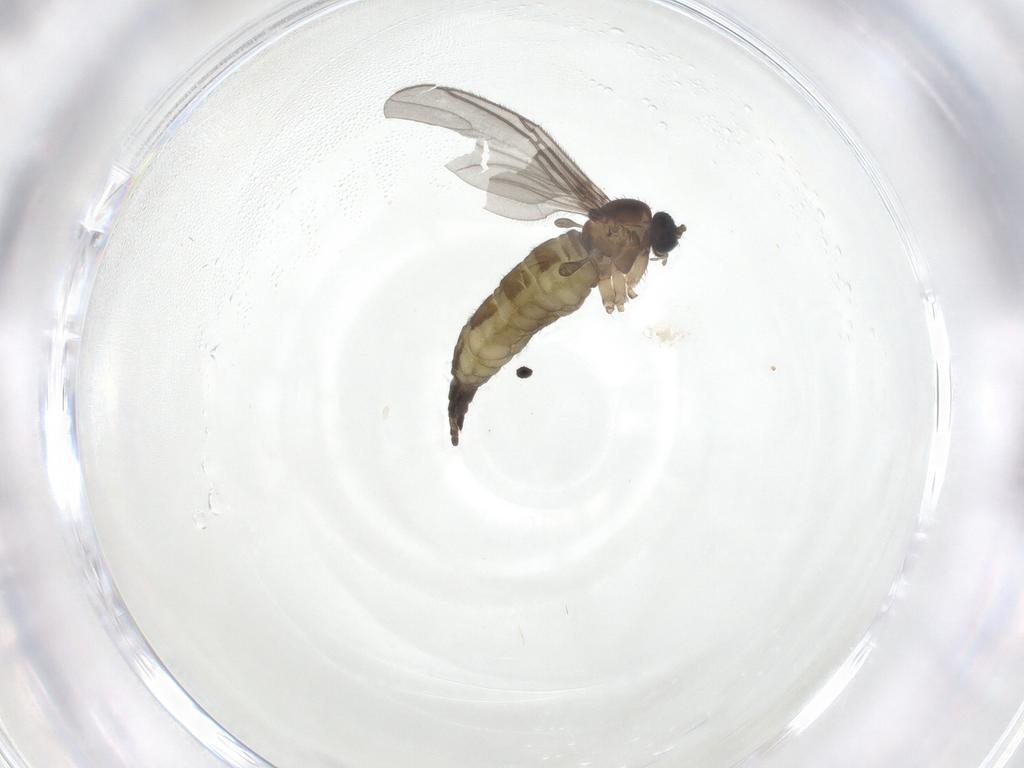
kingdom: Animalia
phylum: Arthropoda
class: Insecta
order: Diptera
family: Sciaridae
